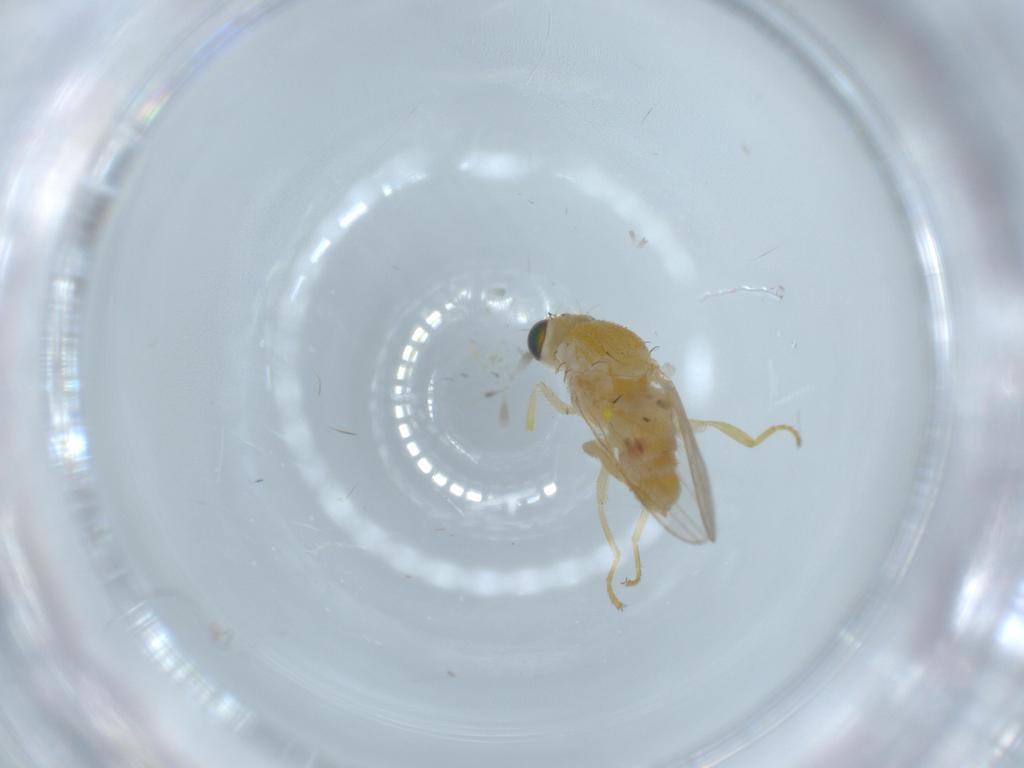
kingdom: Animalia
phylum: Arthropoda
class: Insecta
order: Diptera
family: Chyromyidae
